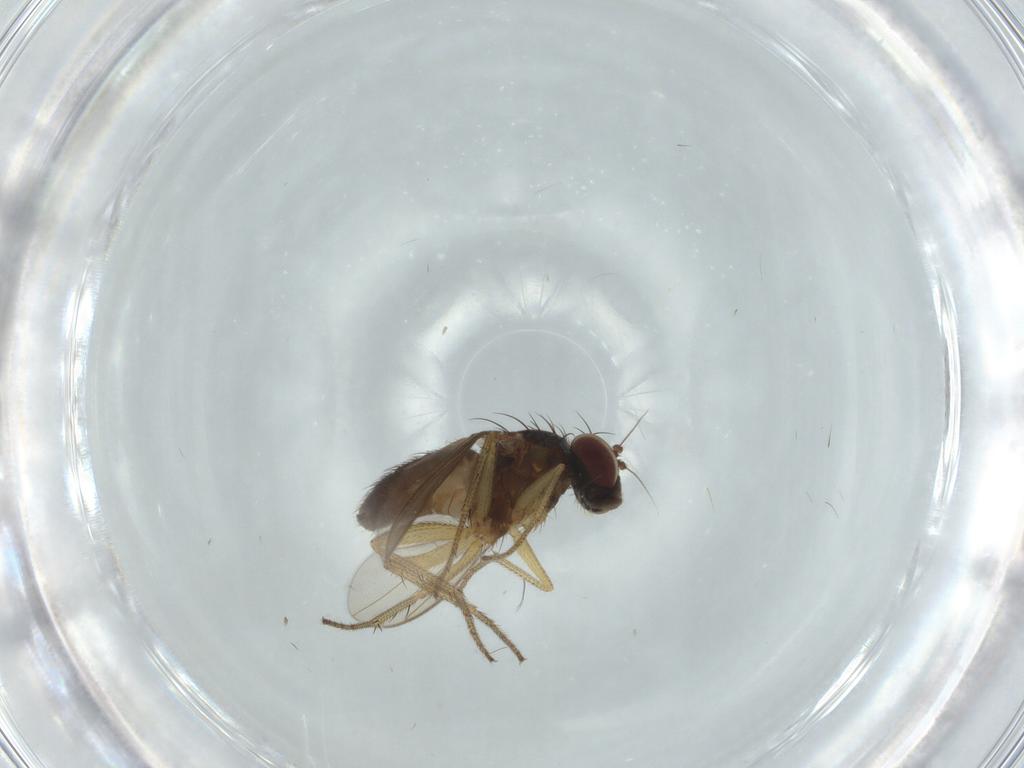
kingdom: Animalia
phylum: Arthropoda
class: Insecta
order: Diptera
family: Dolichopodidae
